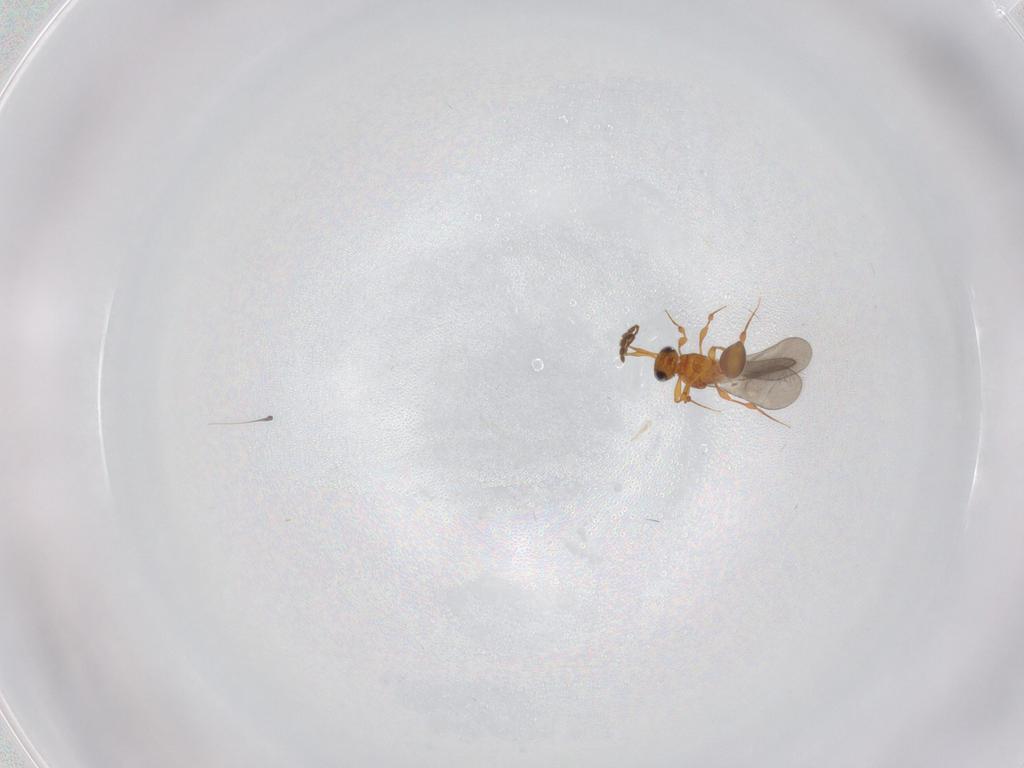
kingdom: Animalia
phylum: Arthropoda
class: Insecta
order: Hymenoptera
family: Platygastridae
